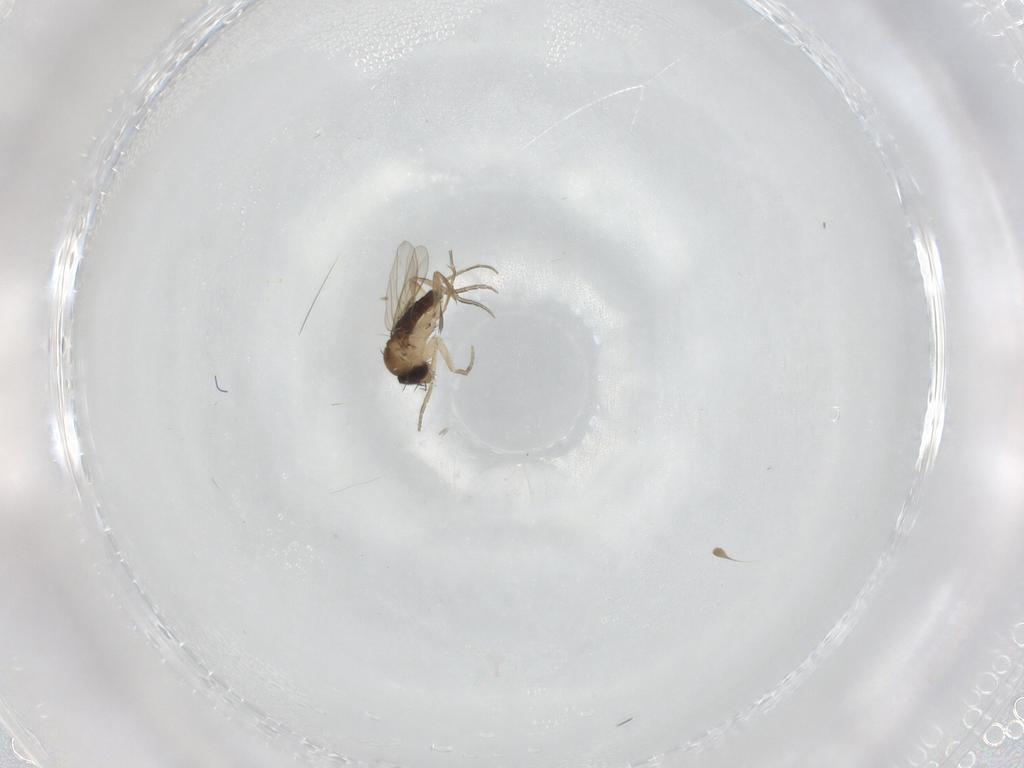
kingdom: Animalia
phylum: Arthropoda
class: Insecta
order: Diptera
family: Phoridae
